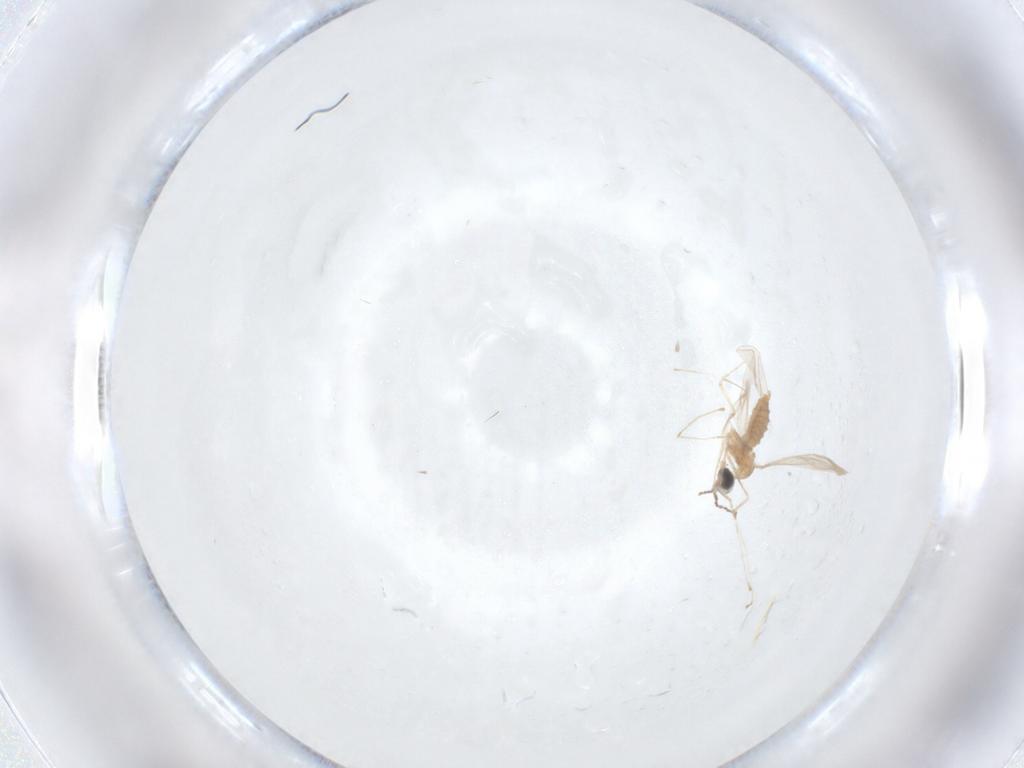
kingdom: Animalia
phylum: Arthropoda
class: Insecta
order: Diptera
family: Cecidomyiidae
